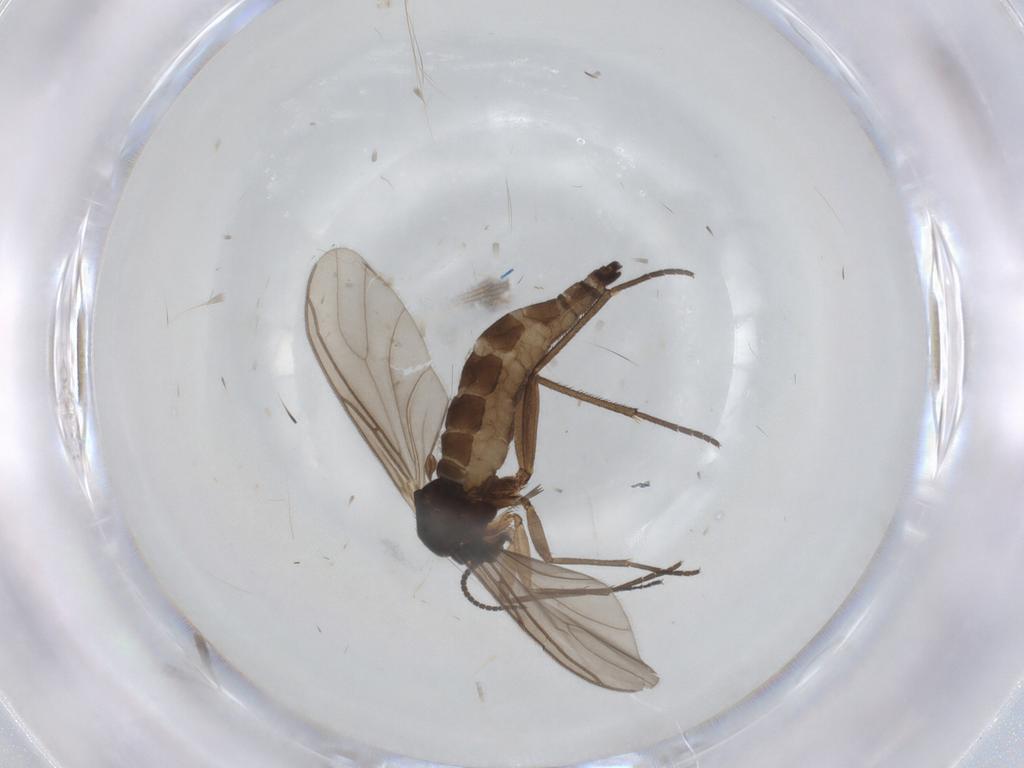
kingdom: Animalia
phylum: Arthropoda
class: Insecta
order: Diptera
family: Sciaridae
